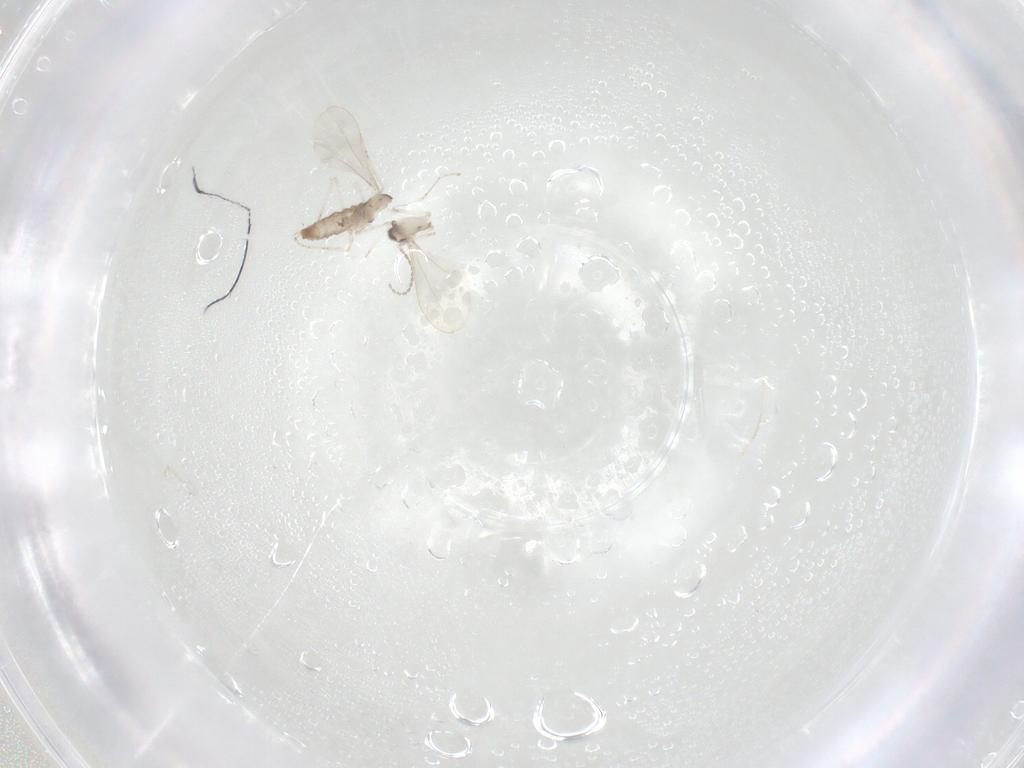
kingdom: Animalia
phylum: Arthropoda
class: Insecta
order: Diptera
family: Cecidomyiidae
